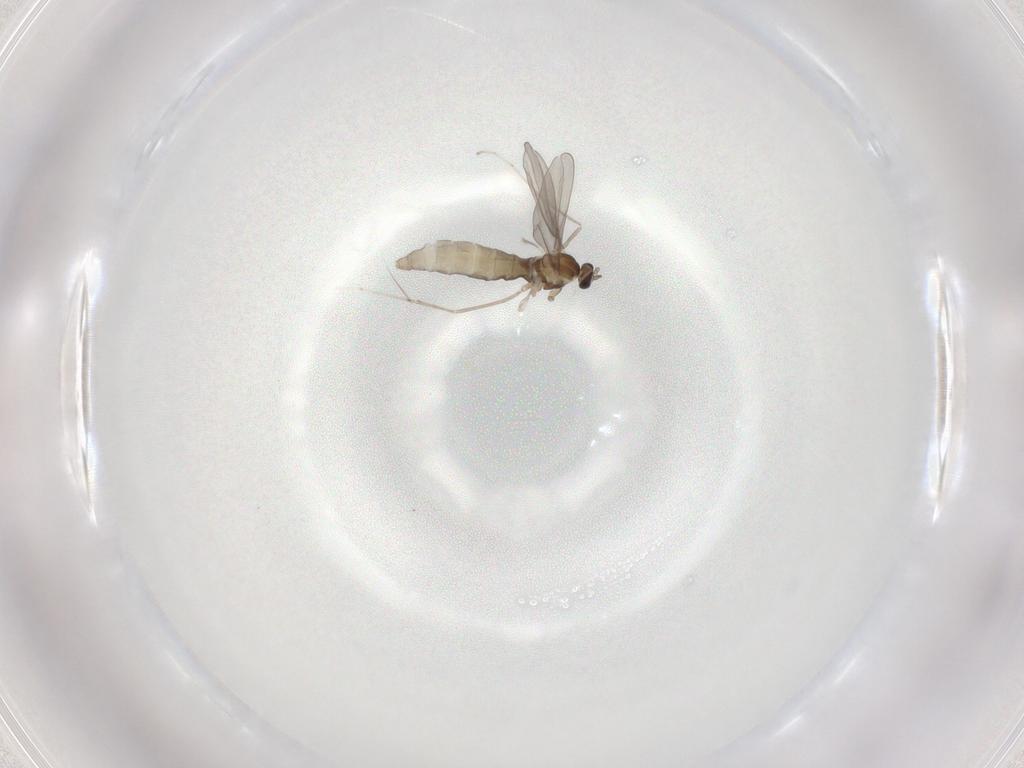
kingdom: Animalia
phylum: Arthropoda
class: Insecta
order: Diptera
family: Cecidomyiidae
